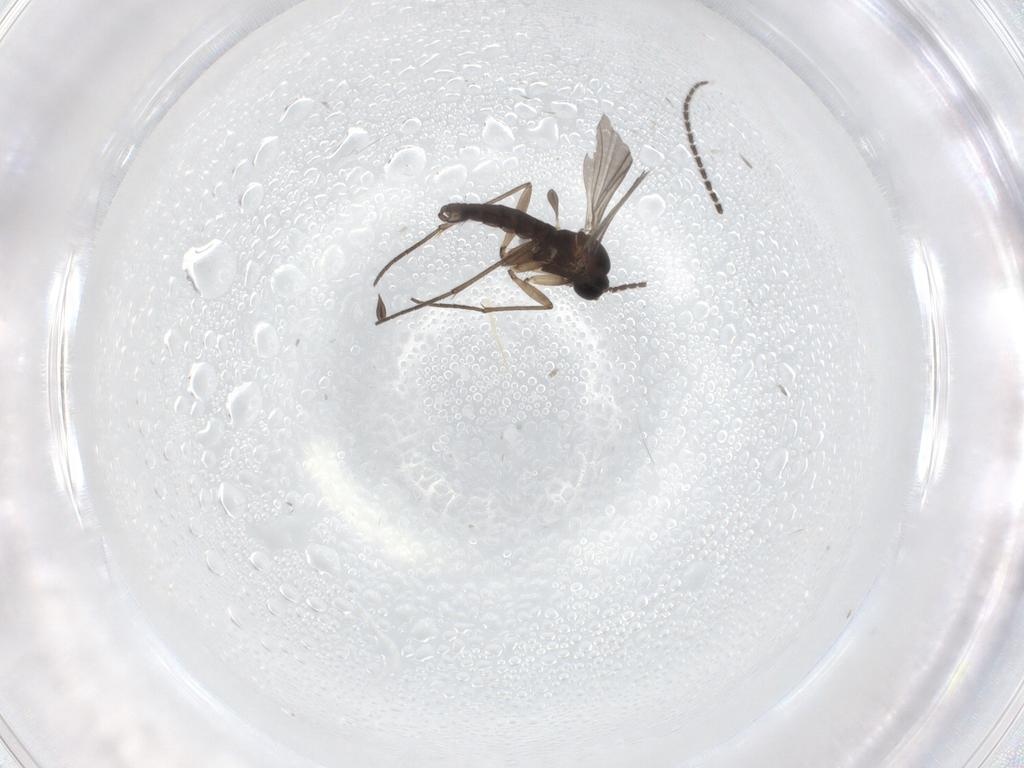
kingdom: Animalia
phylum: Arthropoda
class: Insecta
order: Diptera
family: Sciaridae
